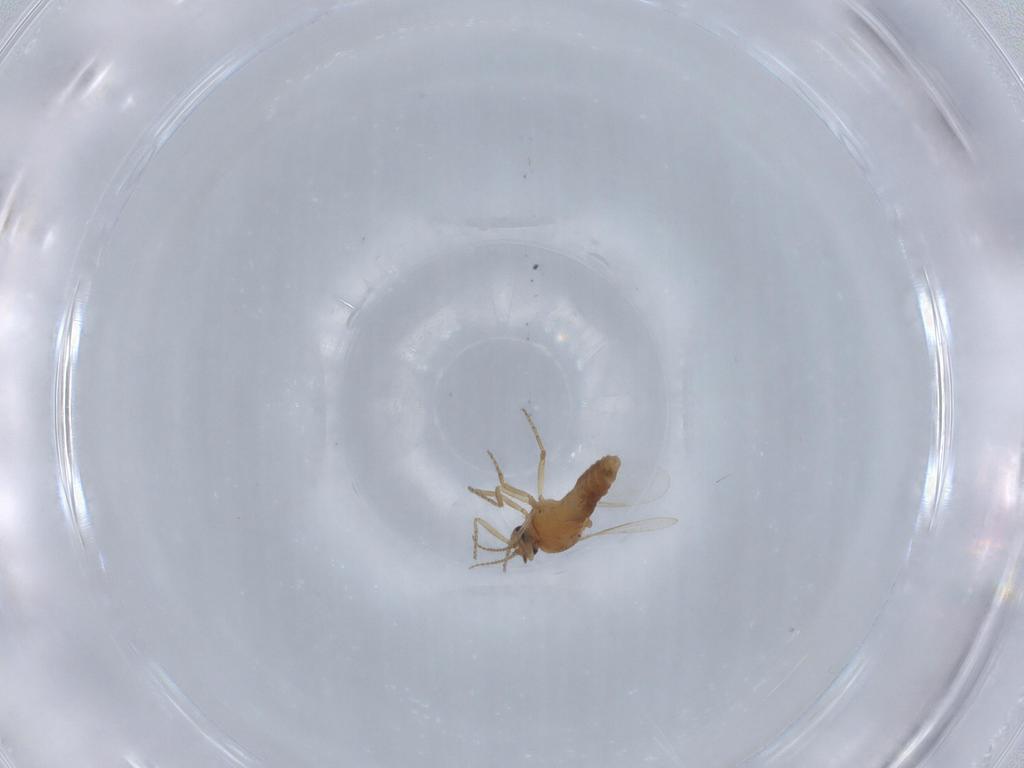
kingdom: Animalia
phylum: Arthropoda
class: Insecta
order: Diptera
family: Ceratopogonidae
